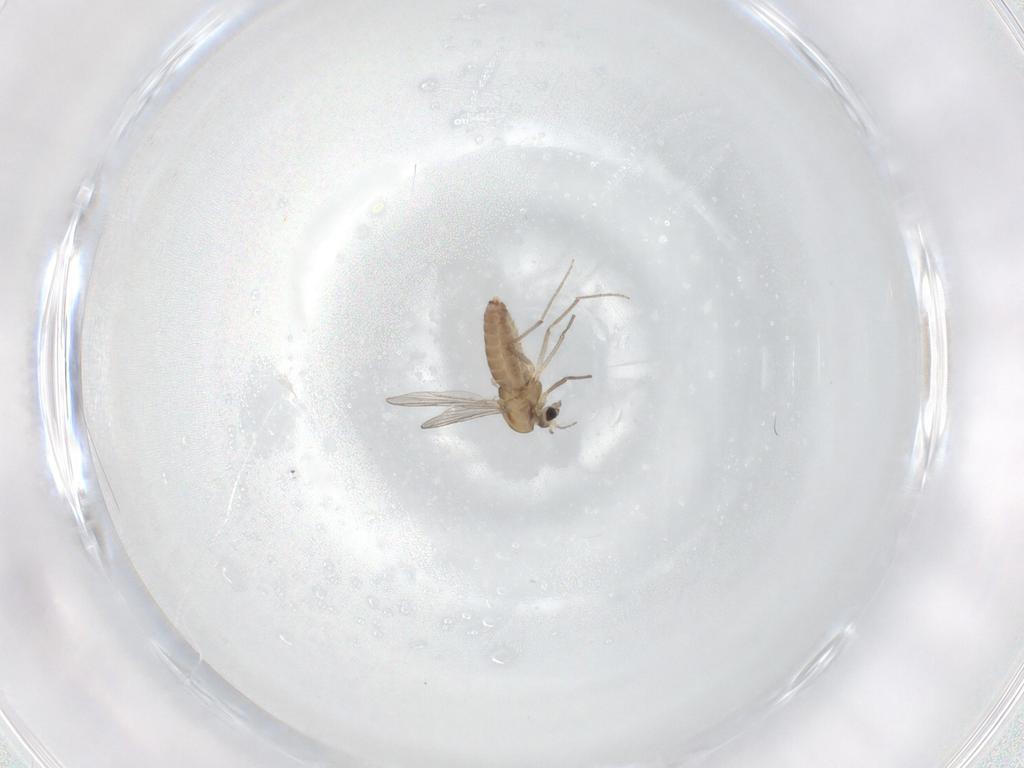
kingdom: Animalia
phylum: Arthropoda
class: Insecta
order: Diptera
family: Chironomidae
